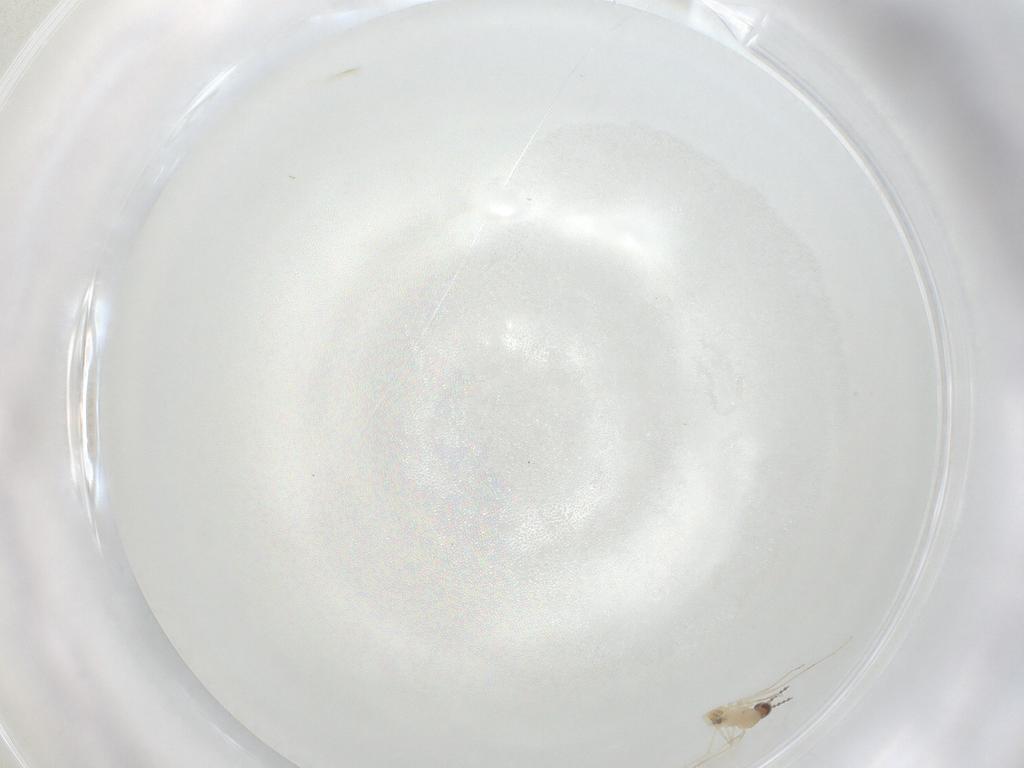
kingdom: Animalia
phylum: Arthropoda
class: Insecta
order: Diptera
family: Cecidomyiidae
